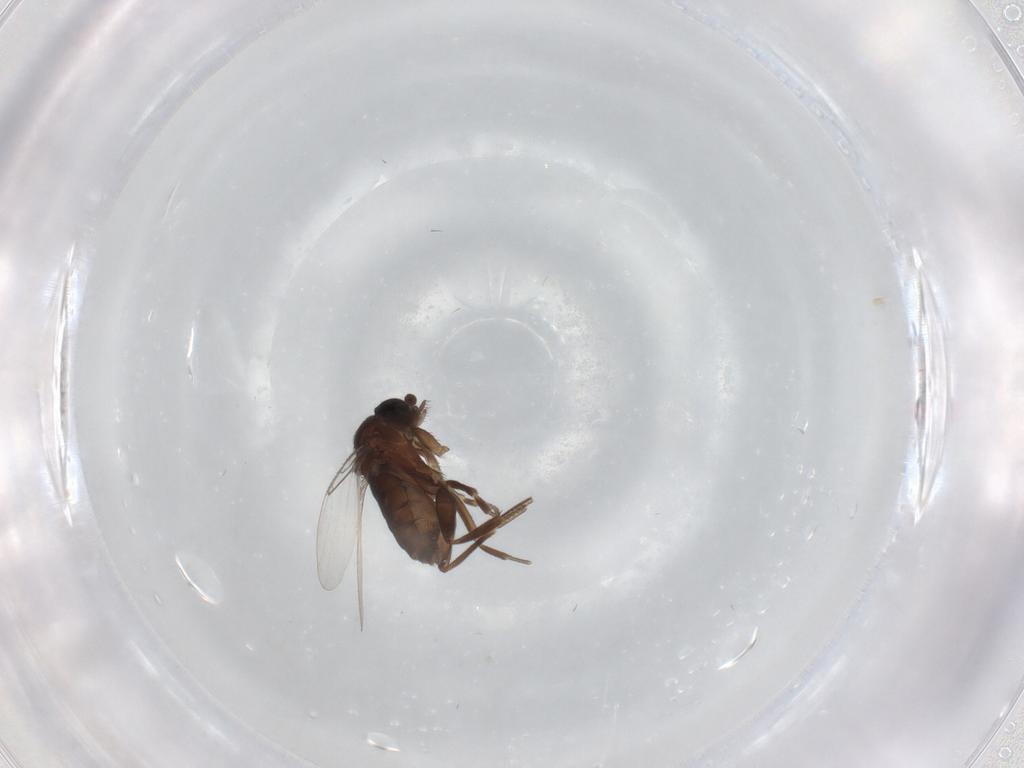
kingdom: Animalia
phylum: Arthropoda
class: Insecta
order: Diptera
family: Phoridae
